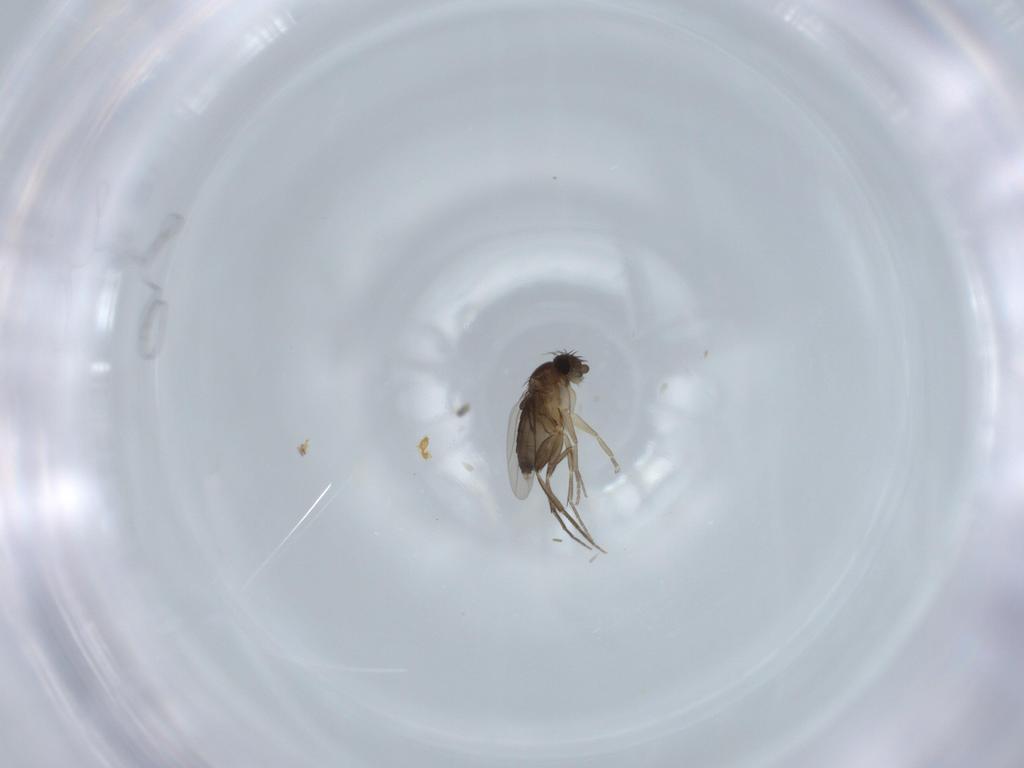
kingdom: Animalia
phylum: Arthropoda
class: Insecta
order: Diptera
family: Phoridae
